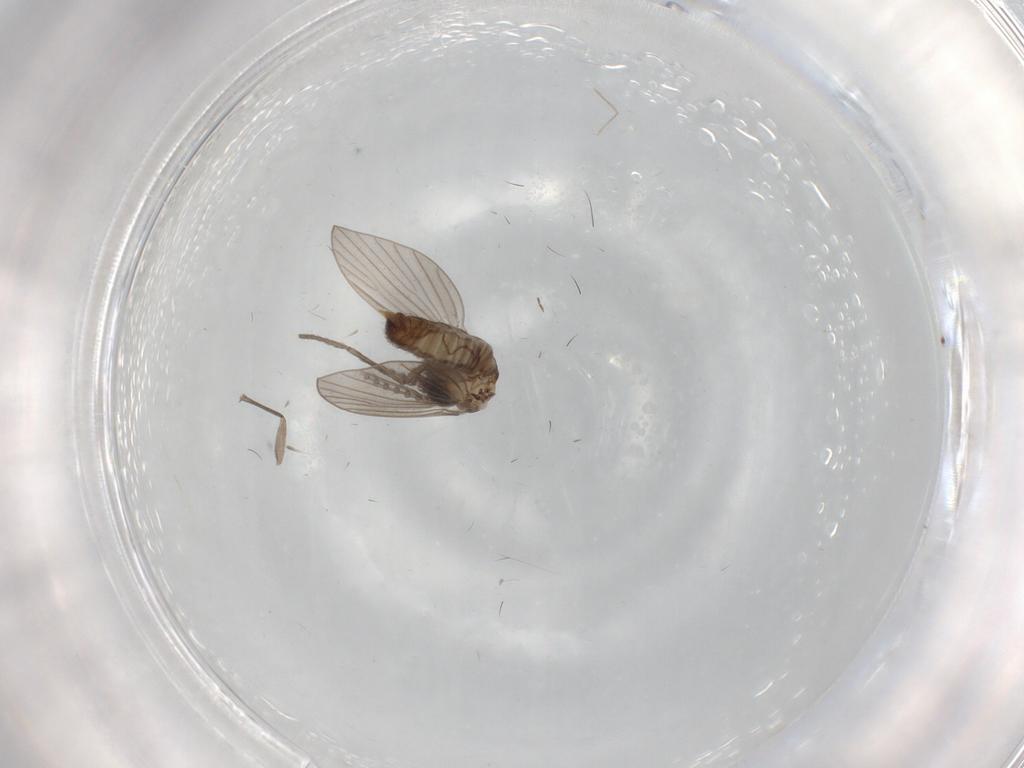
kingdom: Animalia
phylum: Arthropoda
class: Insecta
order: Diptera
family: Psychodidae
